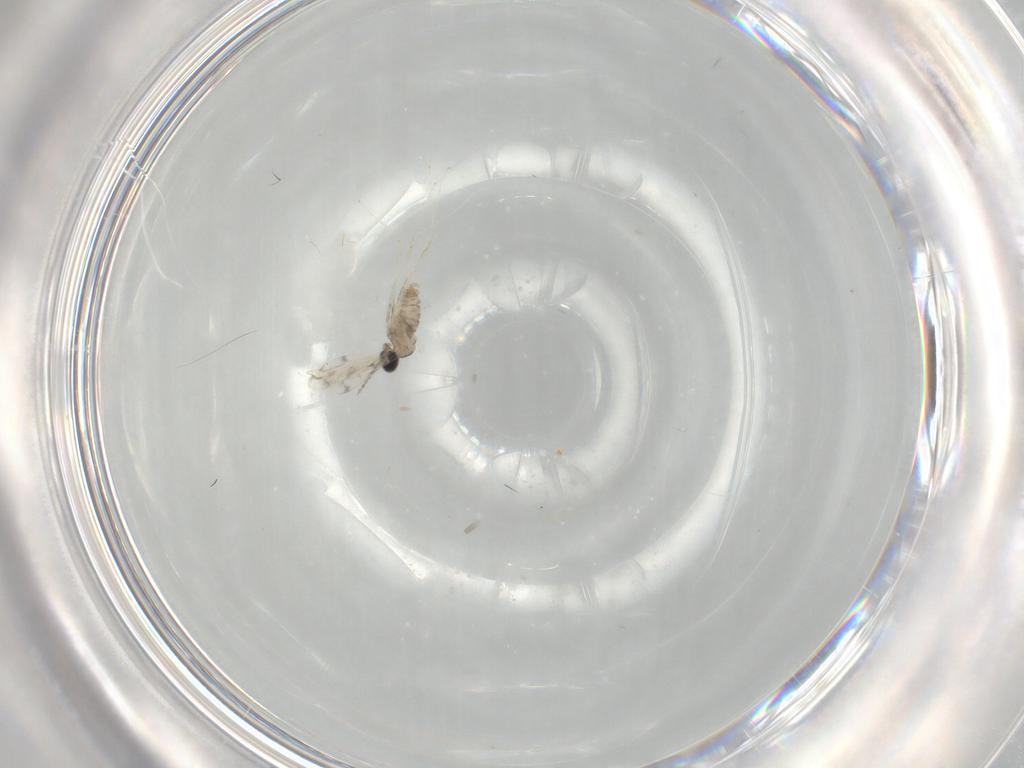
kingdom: Animalia
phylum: Arthropoda
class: Insecta
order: Diptera
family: Cecidomyiidae
